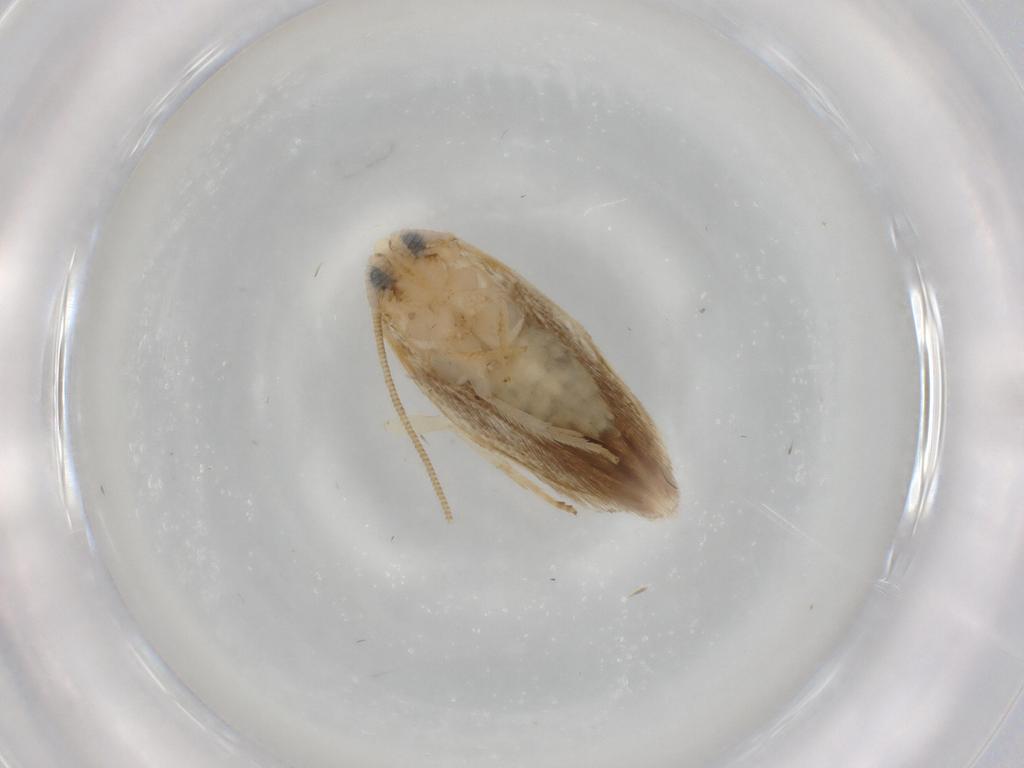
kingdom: Animalia
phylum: Arthropoda
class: Insecta
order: Lepidoptera
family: Opostegidae
